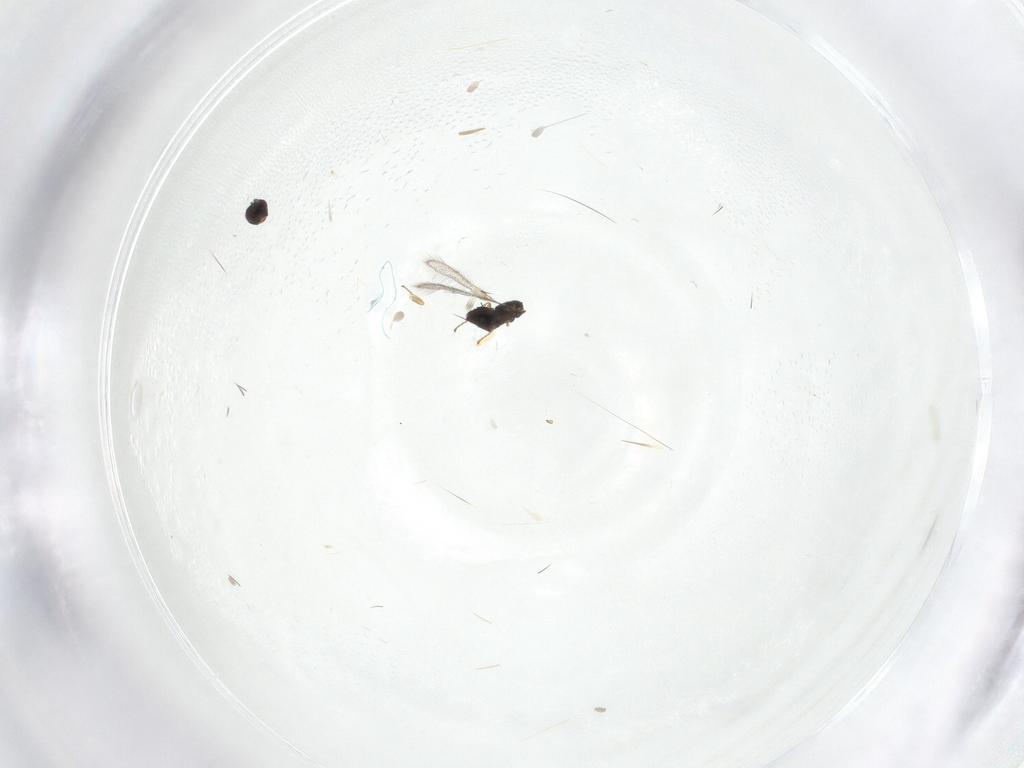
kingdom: Animalia
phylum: Arthropoda
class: Insecta
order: Hymenoptera
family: Mymaridae
